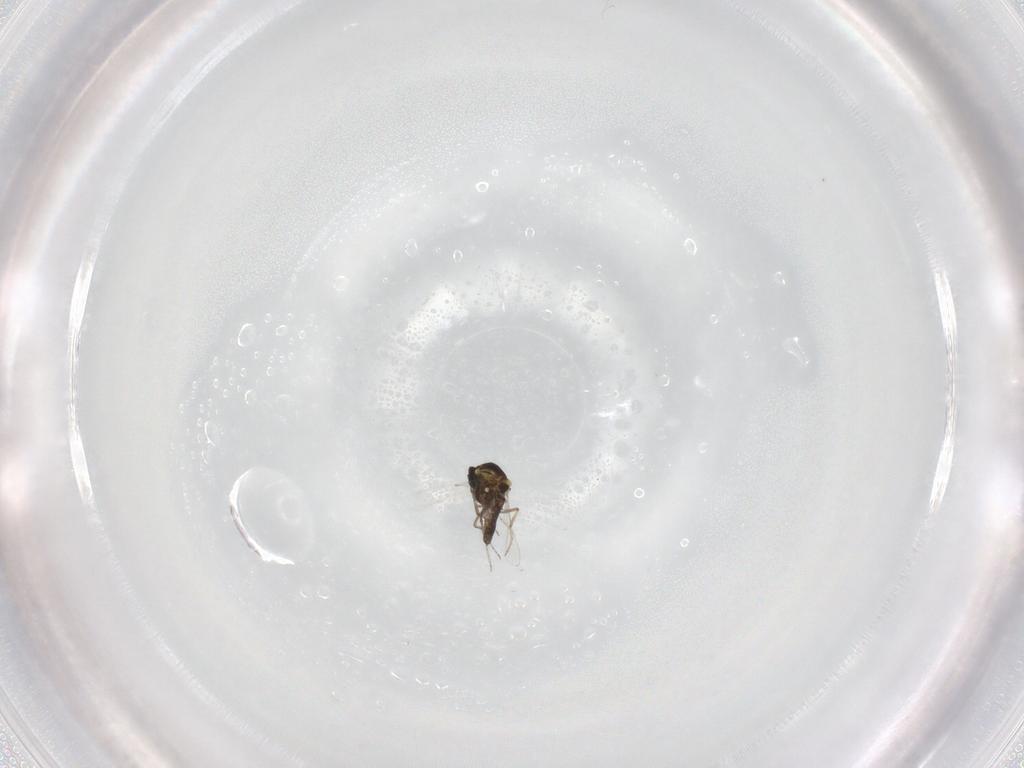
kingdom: Animalia
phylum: Arthropoda
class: Insecta
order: Diptera
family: Ceratopogonidae
